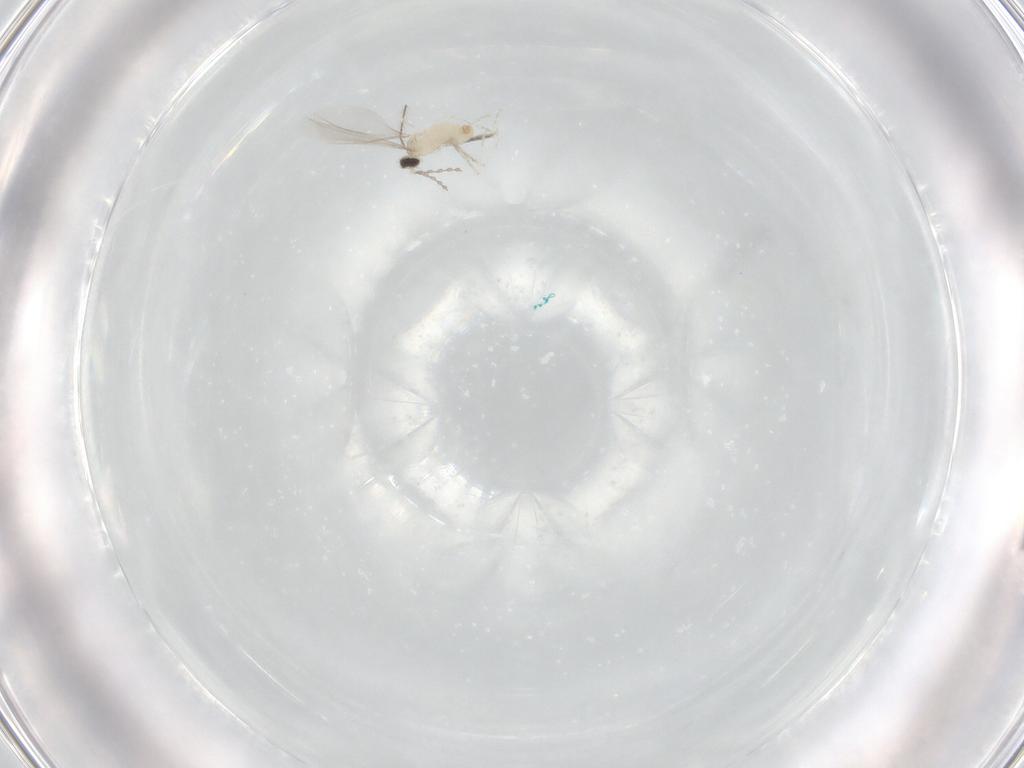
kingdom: Animalia
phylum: Arthropoda
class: Insecta
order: Diptera
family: Cecidomyiidae
